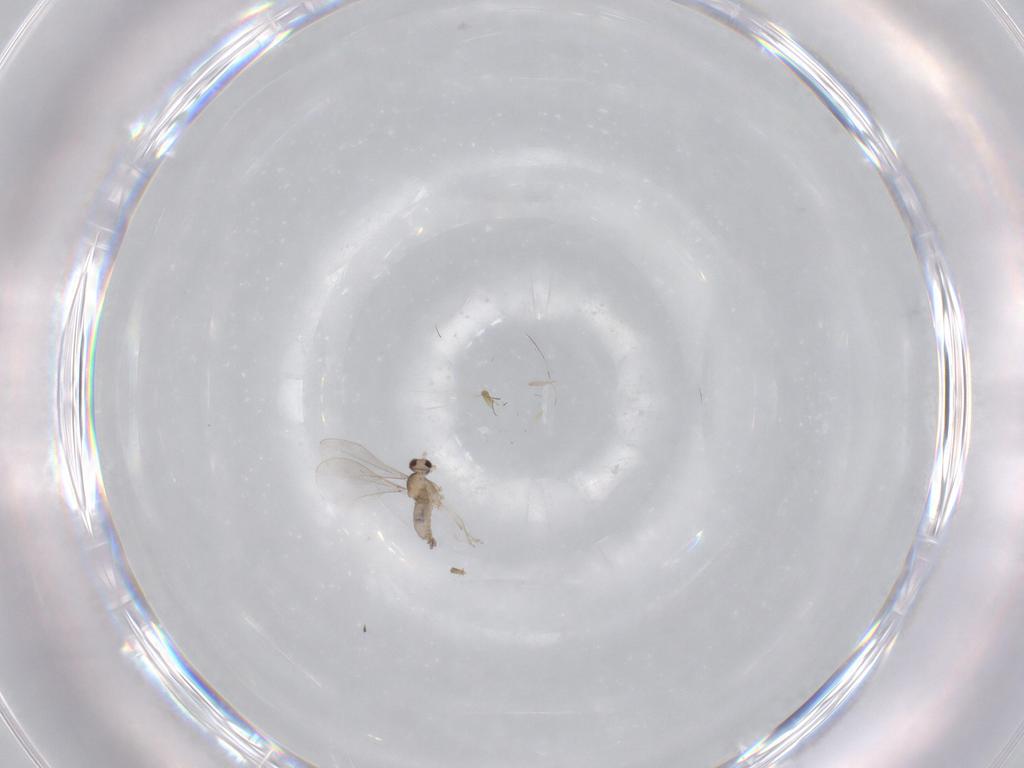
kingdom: Animalia
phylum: Arthropoda
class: Insecta
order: Diptera
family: Cecidomyiidae
